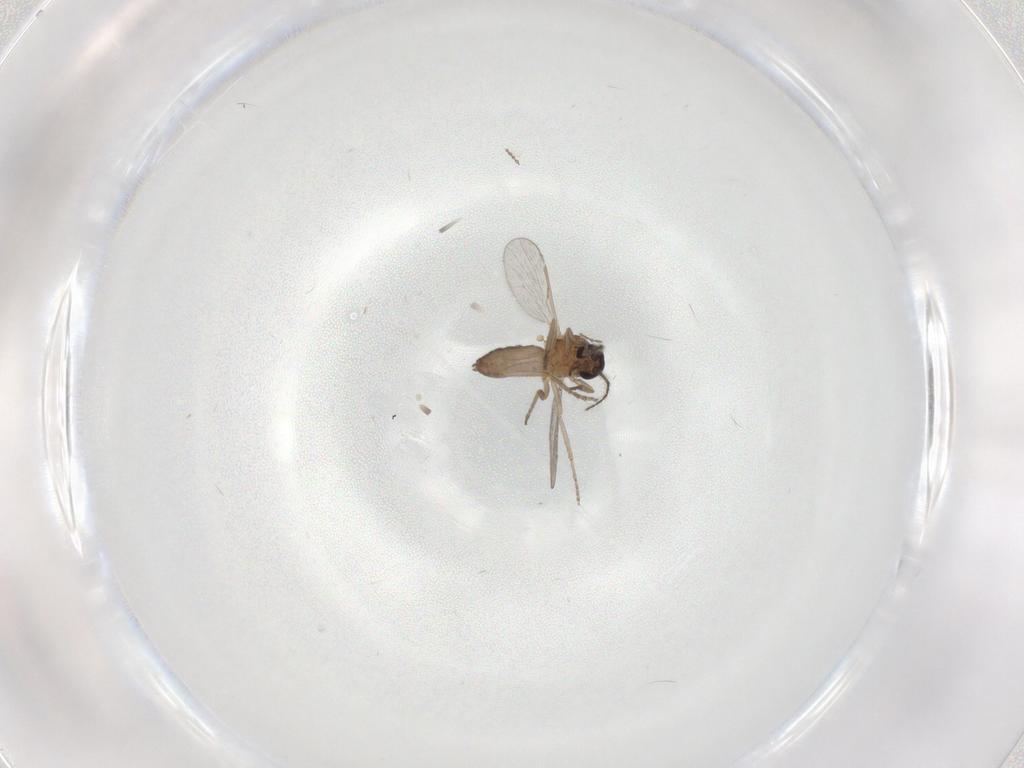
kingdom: Animalia
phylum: Arthropoda
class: Insecta
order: Diptera
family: Ceratopogonidae
